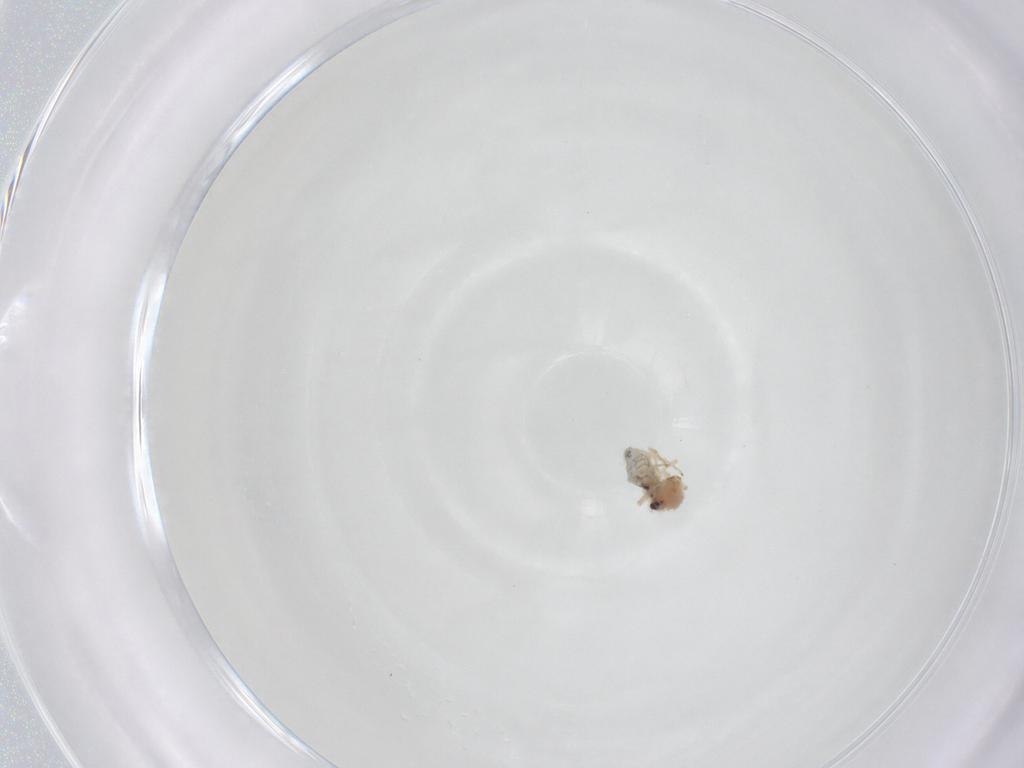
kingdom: Animalia
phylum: Arthropoda
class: Insecta
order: Psocodea
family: Caeciliusidae
